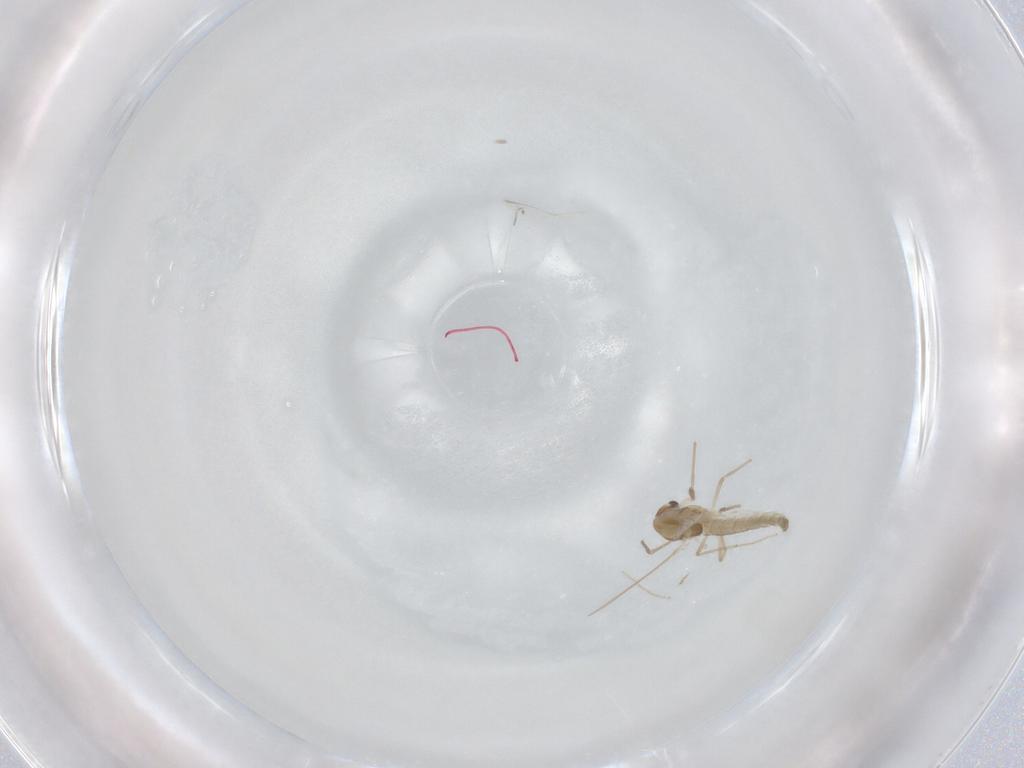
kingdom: Animalia
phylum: Arthropoda
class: Insecta
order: Diptera
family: Chironomidae
